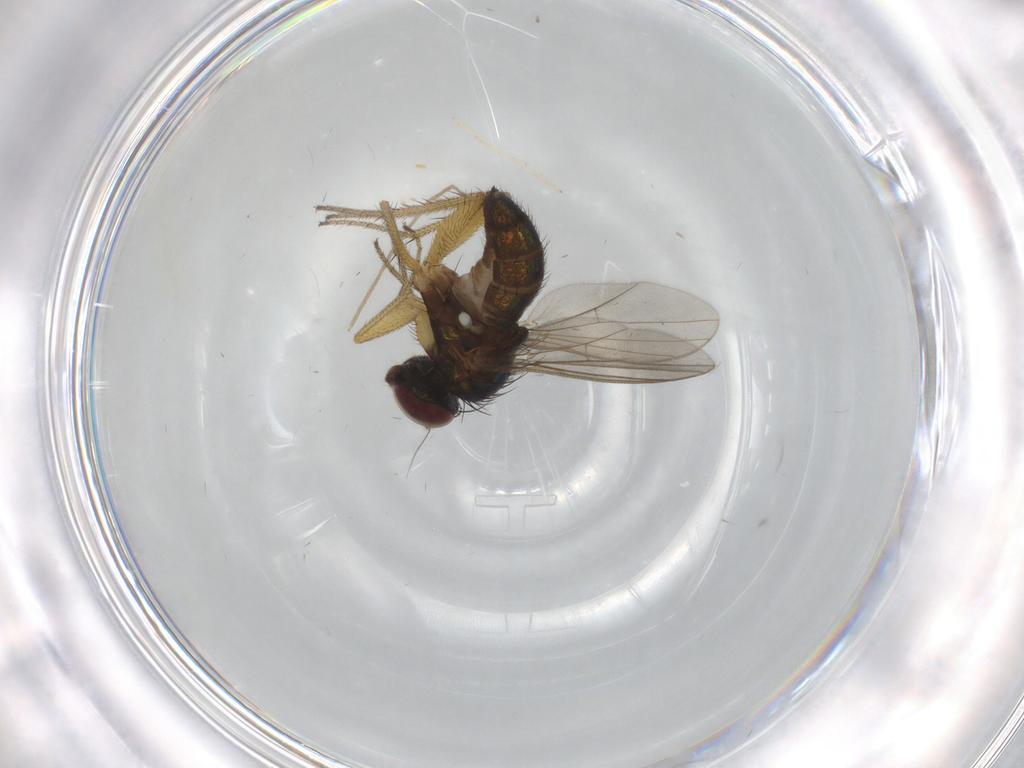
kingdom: Animalia
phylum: Arthropoda
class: Insecta
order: Diptera
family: Chironomidae
